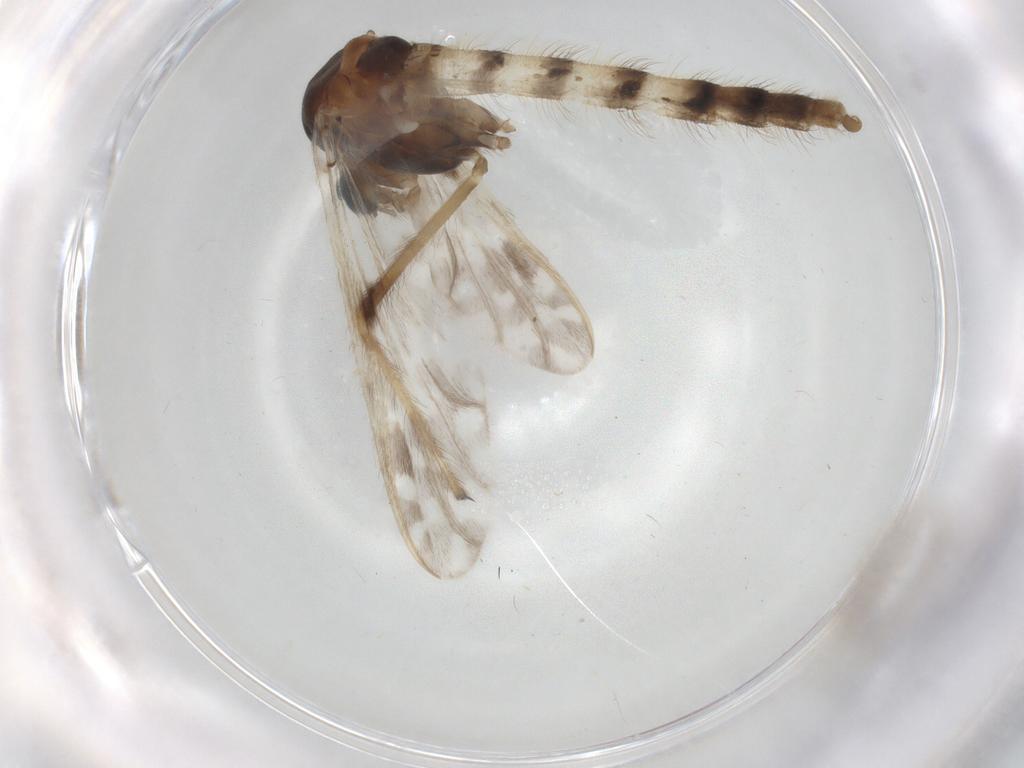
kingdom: Animalia
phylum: Arthropoda
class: Insecta
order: Diptera
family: Chironomidae
